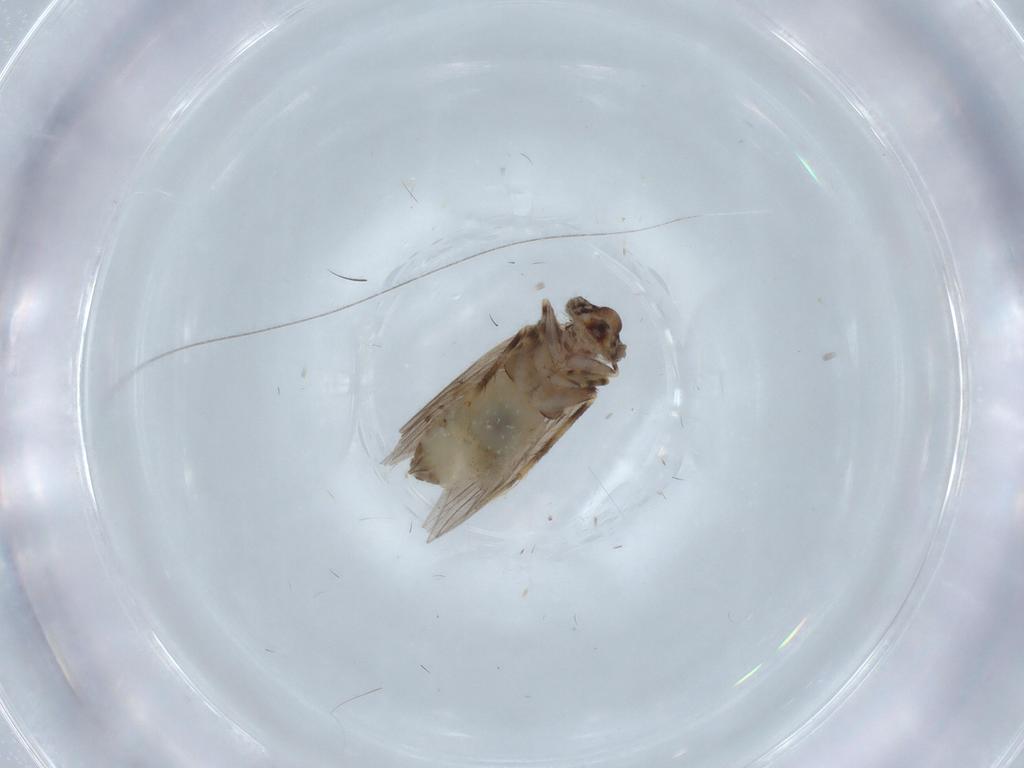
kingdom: Animalia
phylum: Arthropoda
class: Insecta
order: Psocodea
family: Lepidopsocidae
